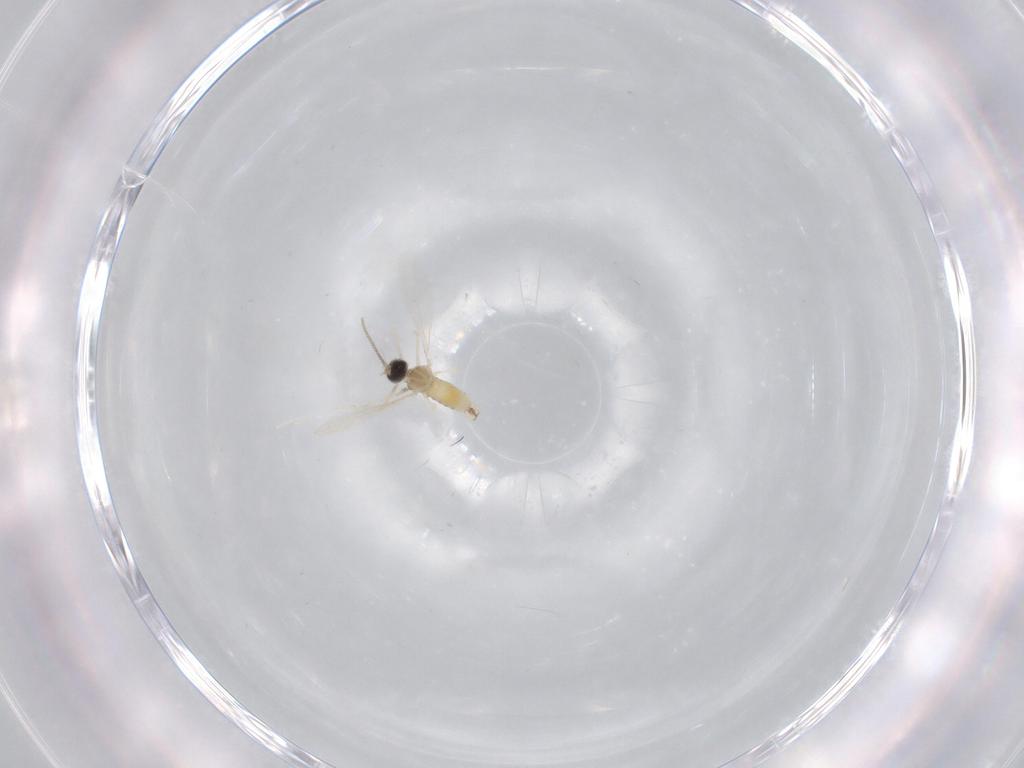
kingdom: Animalia
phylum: Arthropoda
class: Insecta
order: Diptera
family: Cecidomyiidae
